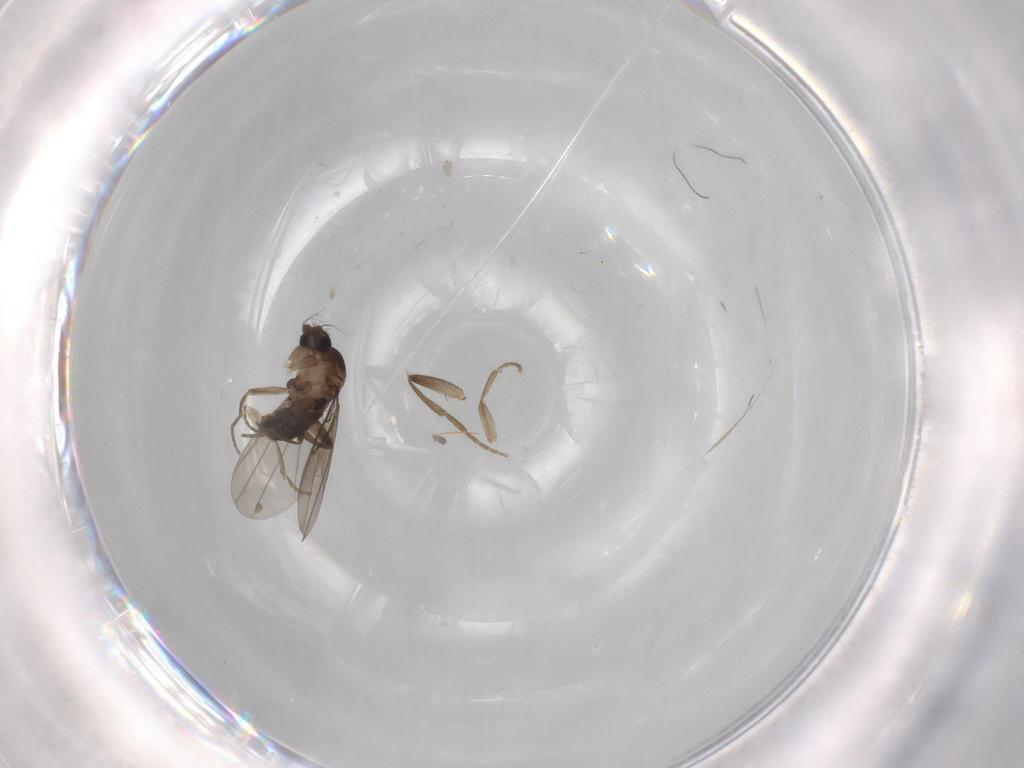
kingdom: Animalia
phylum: Arthropoda
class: Insecta
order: Diptera
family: Phoridae
